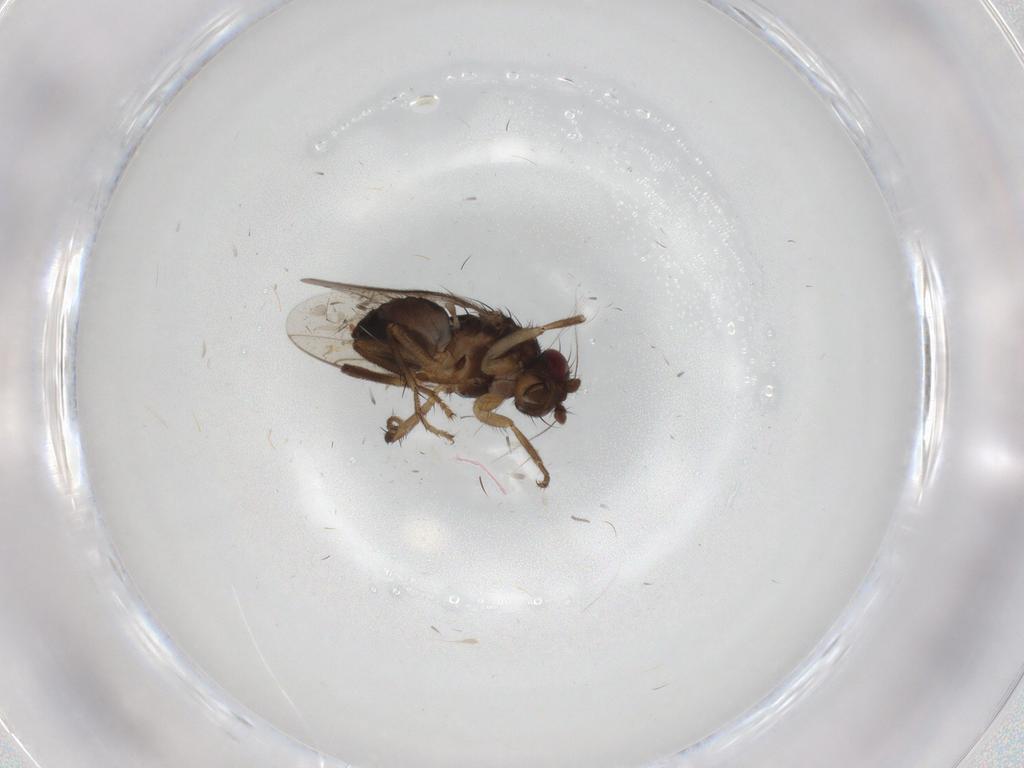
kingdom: Animalia
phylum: Arthropoda
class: Insecta
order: Diptera
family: Sphaeroceridae
